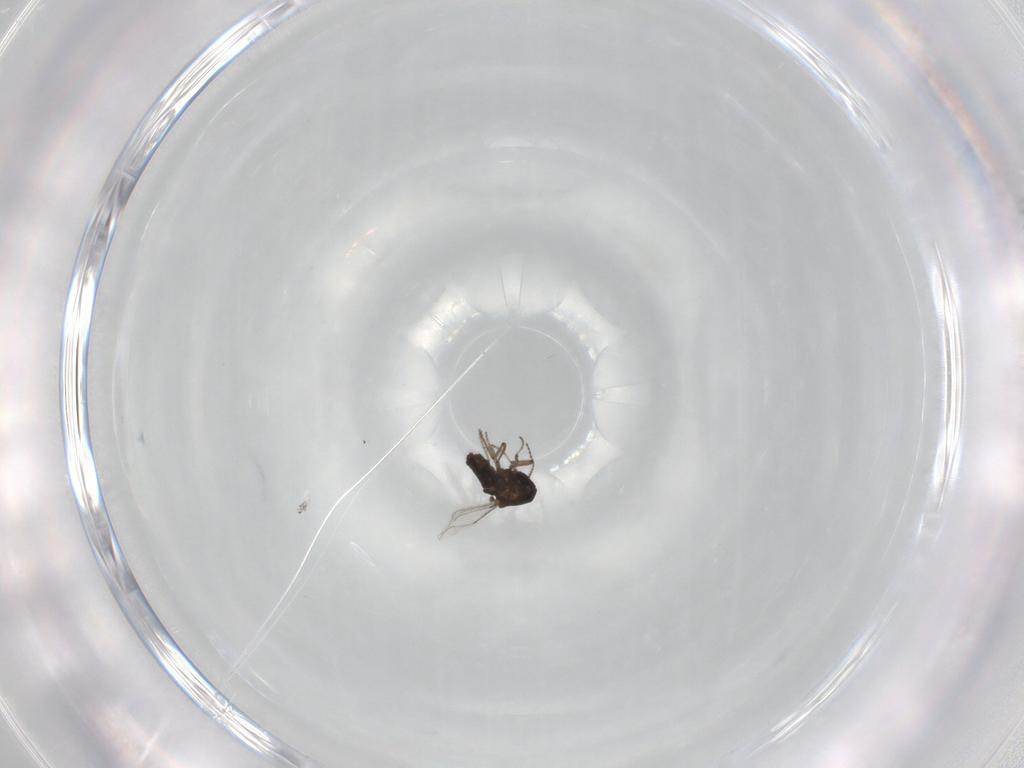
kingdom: Animalia
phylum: Arthropoda
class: Insecta
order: Diptera
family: Ceratopogonidae
